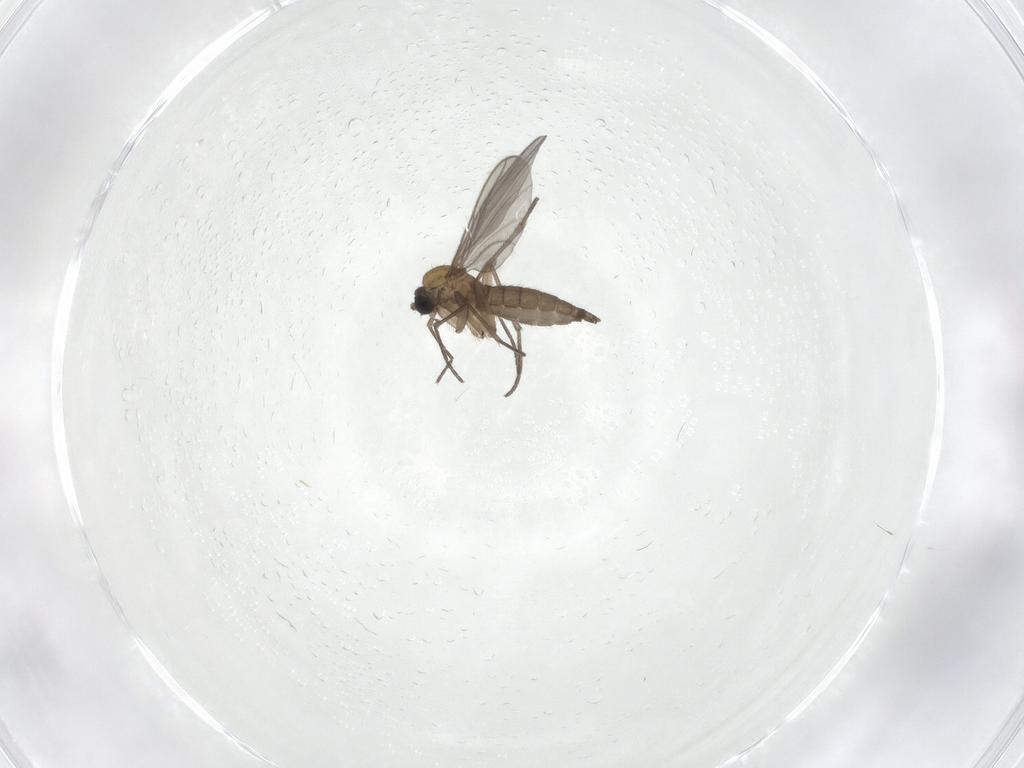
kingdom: Animalia
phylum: Arthropoda
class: Insecta
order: Diptera
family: Sciaridae
